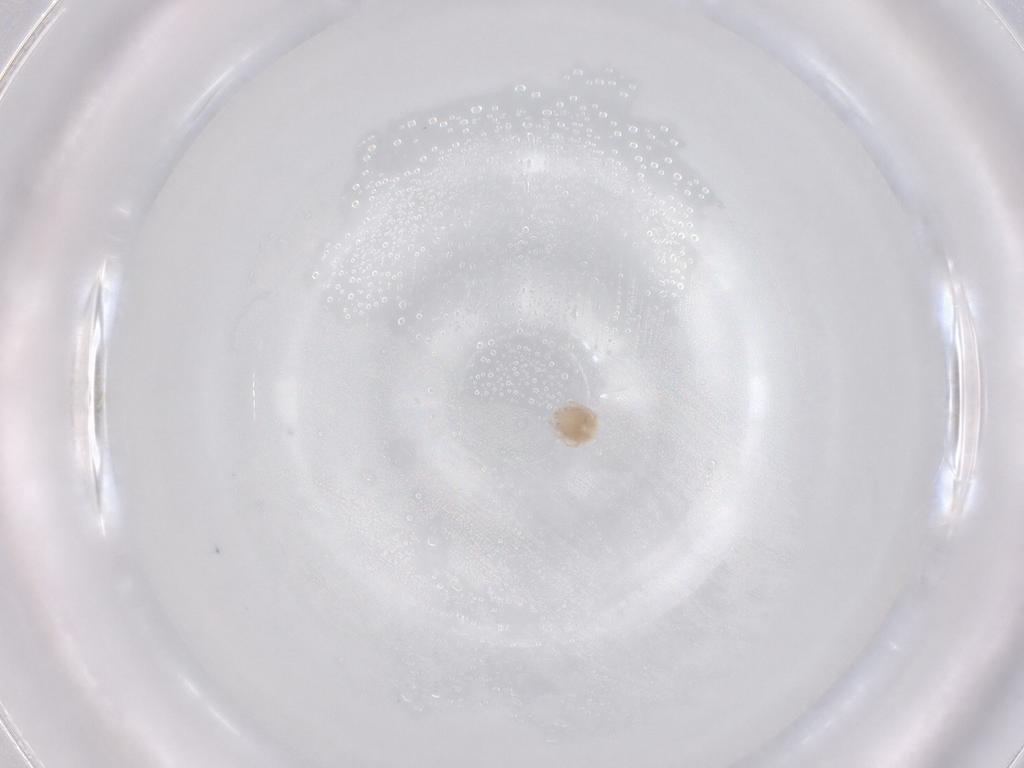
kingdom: Animalia
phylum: Arthropoda
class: Arachnida
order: Trombidiformes
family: Lebertiidae
